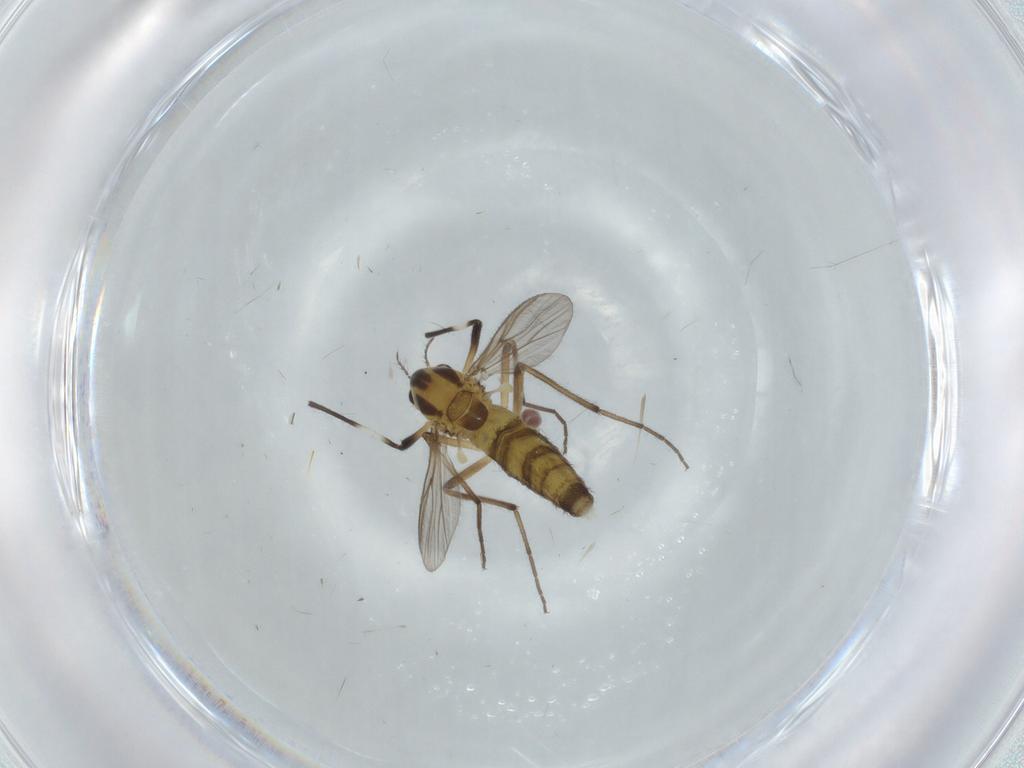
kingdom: Animalia
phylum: Arthropoda
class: Insecta
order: Diptera
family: Tephritidae
